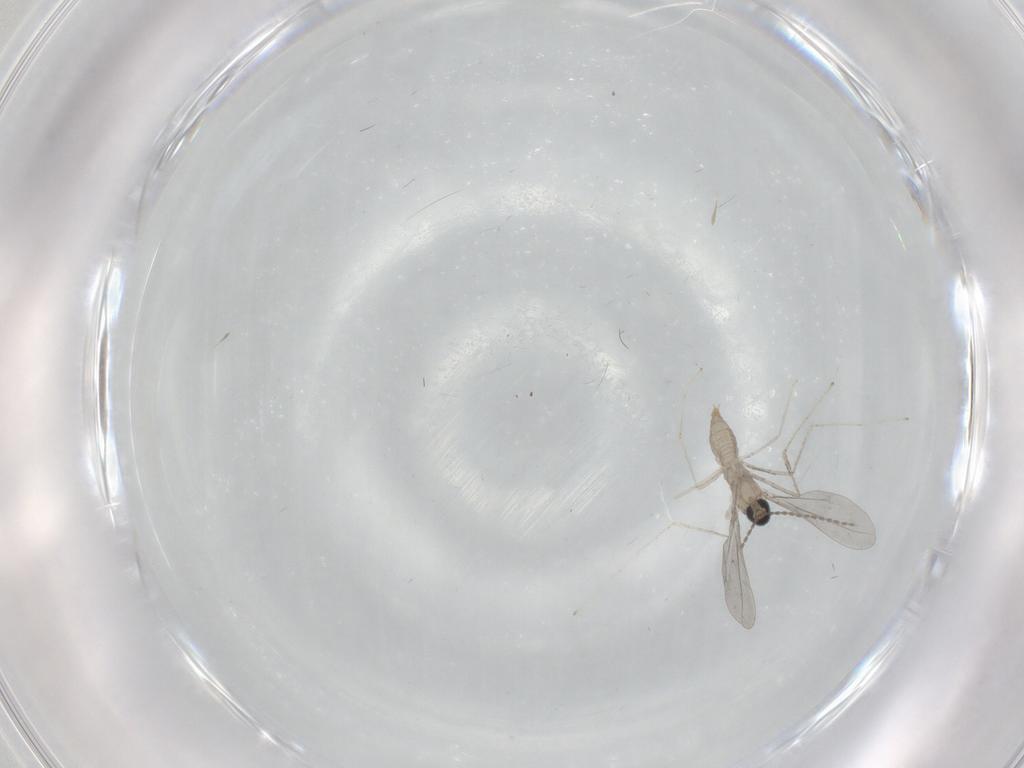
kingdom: Animalia
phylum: Arthropoda
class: Insecta
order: Diptera
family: Cecidomyiidae
